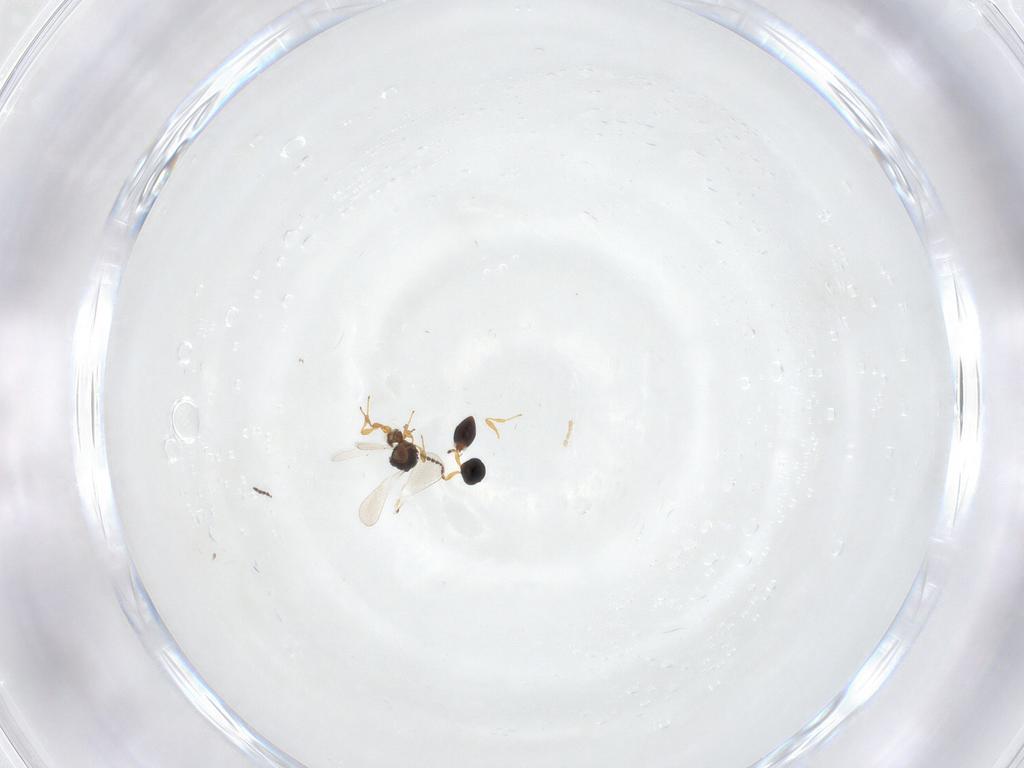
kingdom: Animalia
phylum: Arthropoda
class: Insecta
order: Hymenoptera
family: Platygastridae
